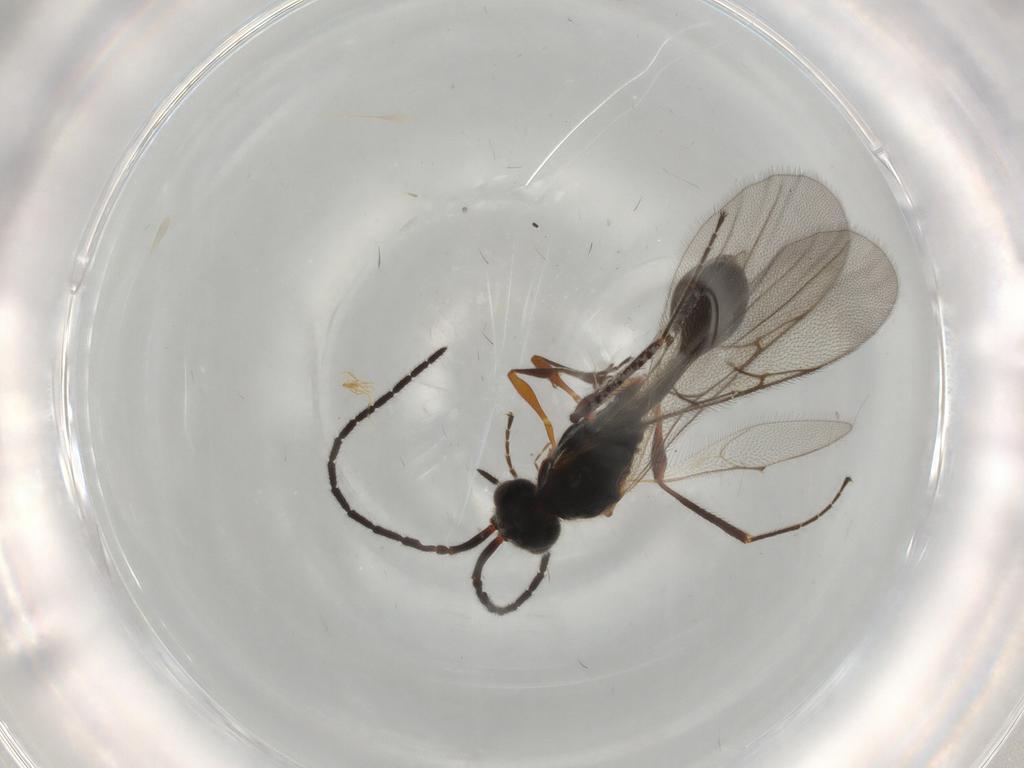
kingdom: Animalia
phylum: Arthropoda
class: Insecta
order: Hymenoptera
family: Diapriidae
